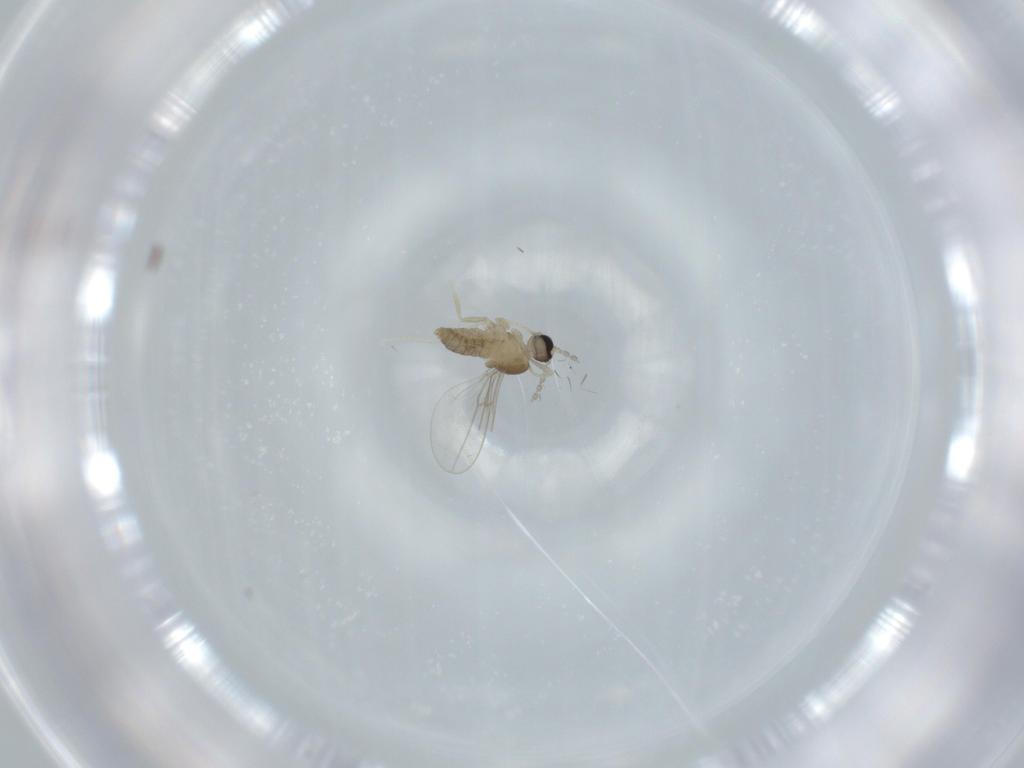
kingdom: Animalia
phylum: Arthropoda
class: Insecta
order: Diptera
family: Cecidomyiidae
